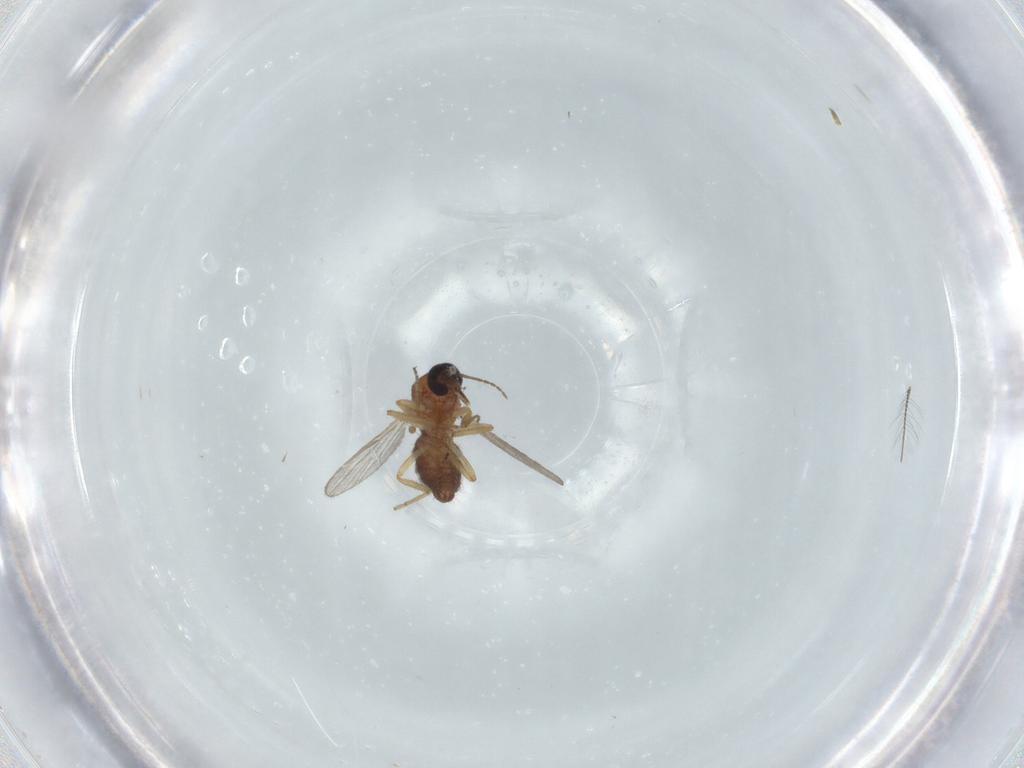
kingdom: Animalia
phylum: Arthropoda
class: Insecta
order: Diptera
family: Ceratopogonidae
